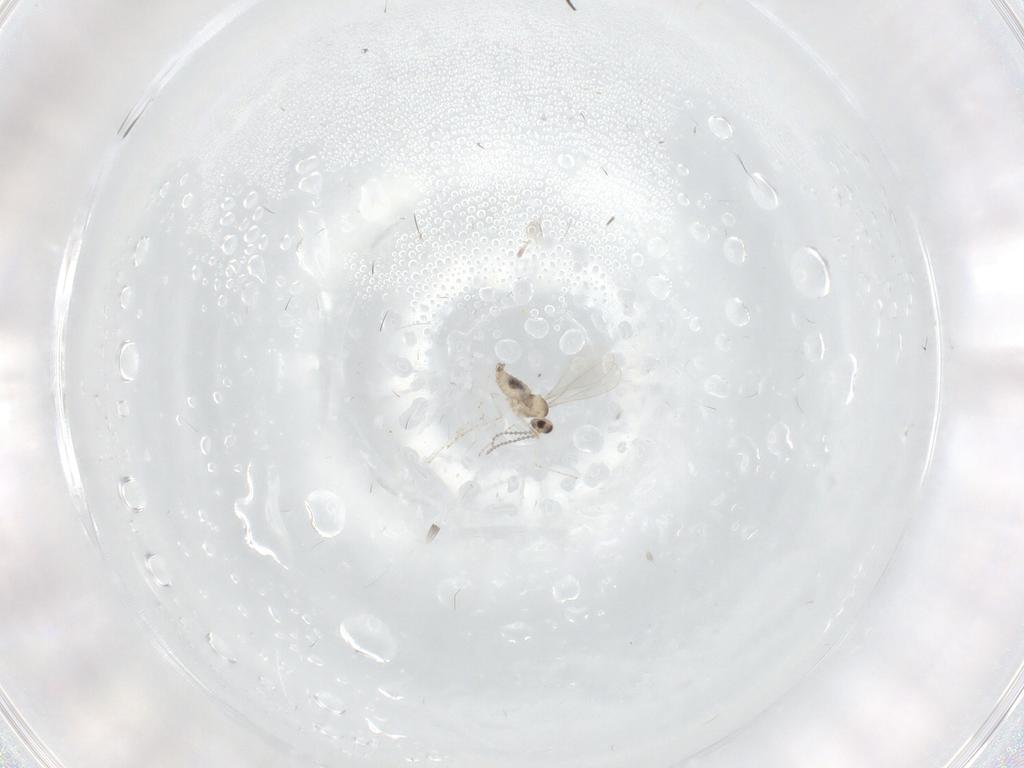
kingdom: Animalia
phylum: Arthropoda
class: Insecta
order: Diptera
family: Cecidomyiidae
